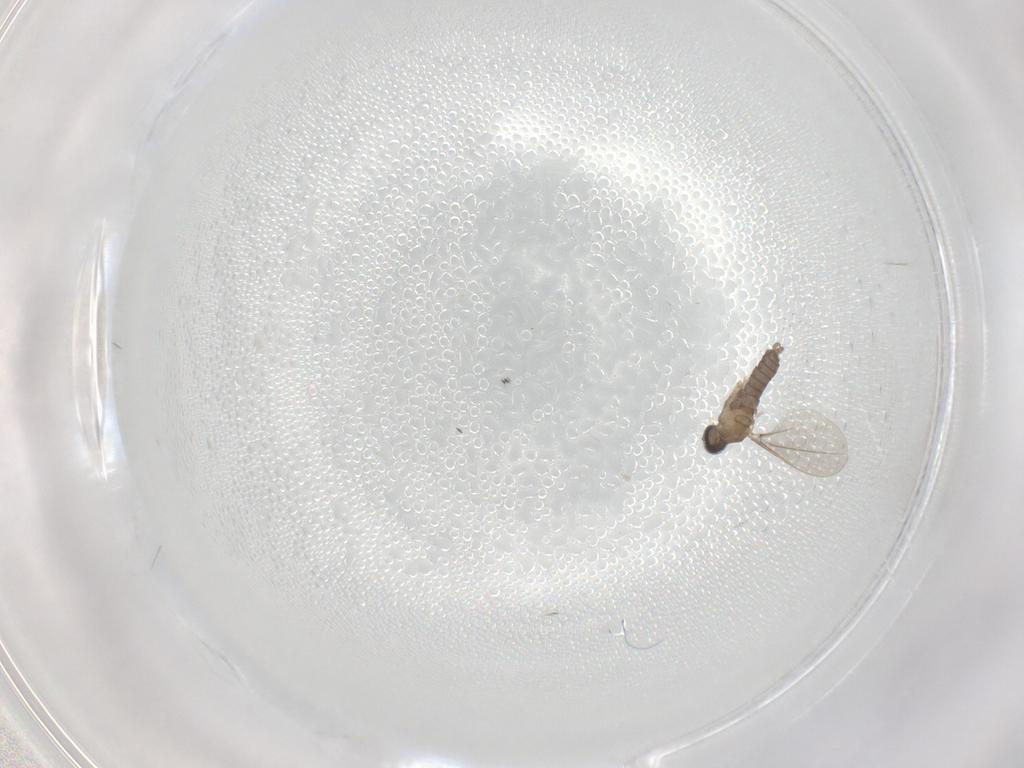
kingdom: Animalia
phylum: Arthropoda
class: Insecta
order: Diptera
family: Cecidomyiidae
